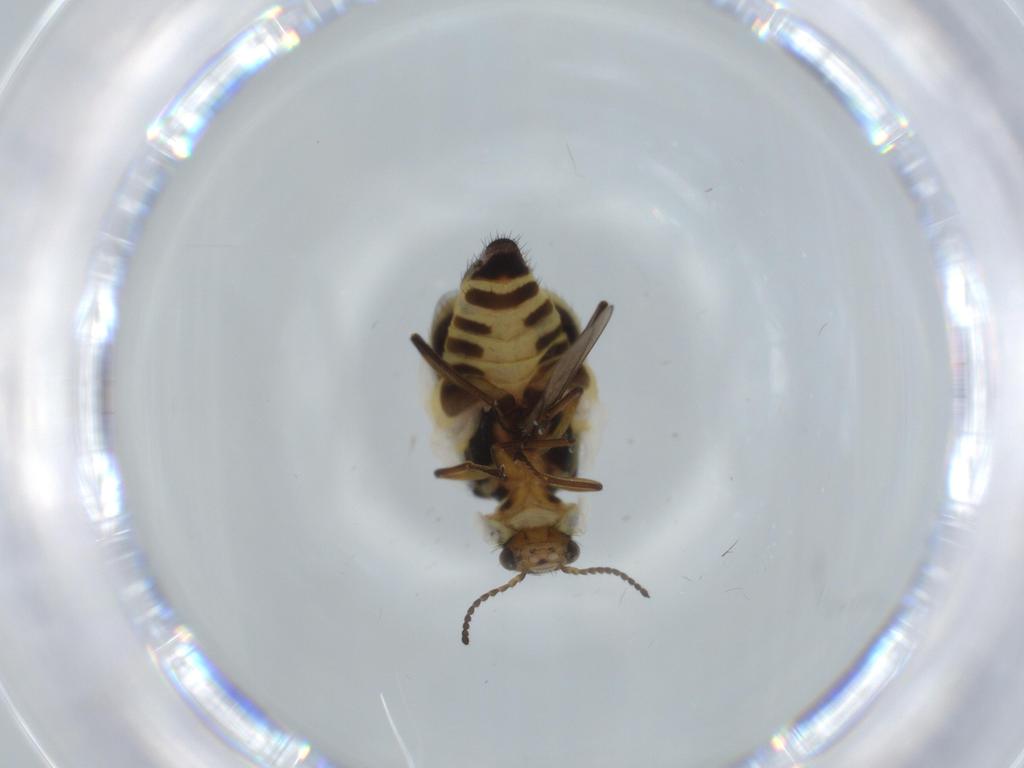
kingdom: Animalia
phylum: Arthropoda
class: Insecta
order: Coleoptera
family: Melyridae
